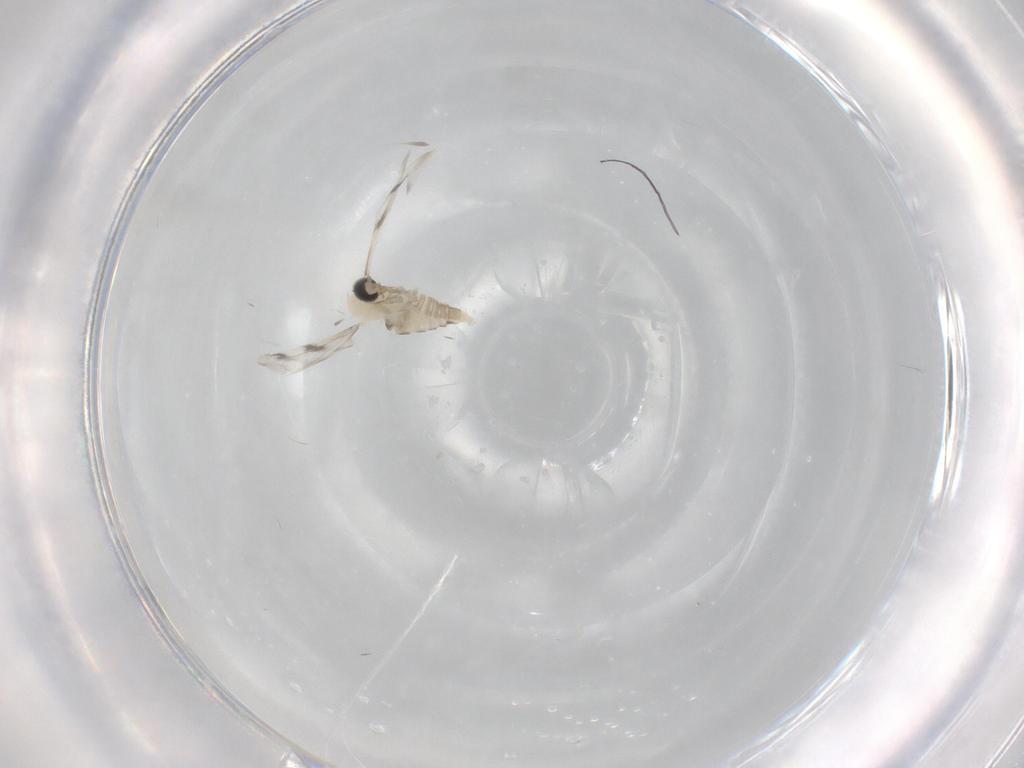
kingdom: Animalia
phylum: Arthropoda
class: Insecta
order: Diptera
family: Cecidomyiidae
